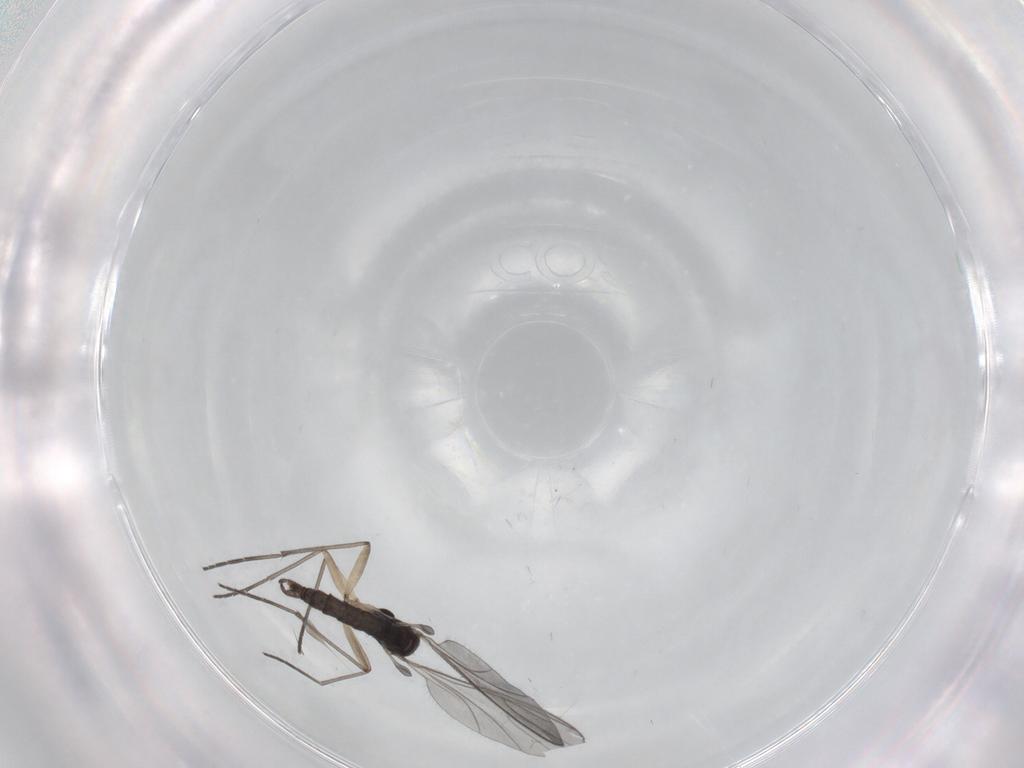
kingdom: Animalia
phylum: Arthropoda
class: Insecta
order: Diptera
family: Sciaridae
